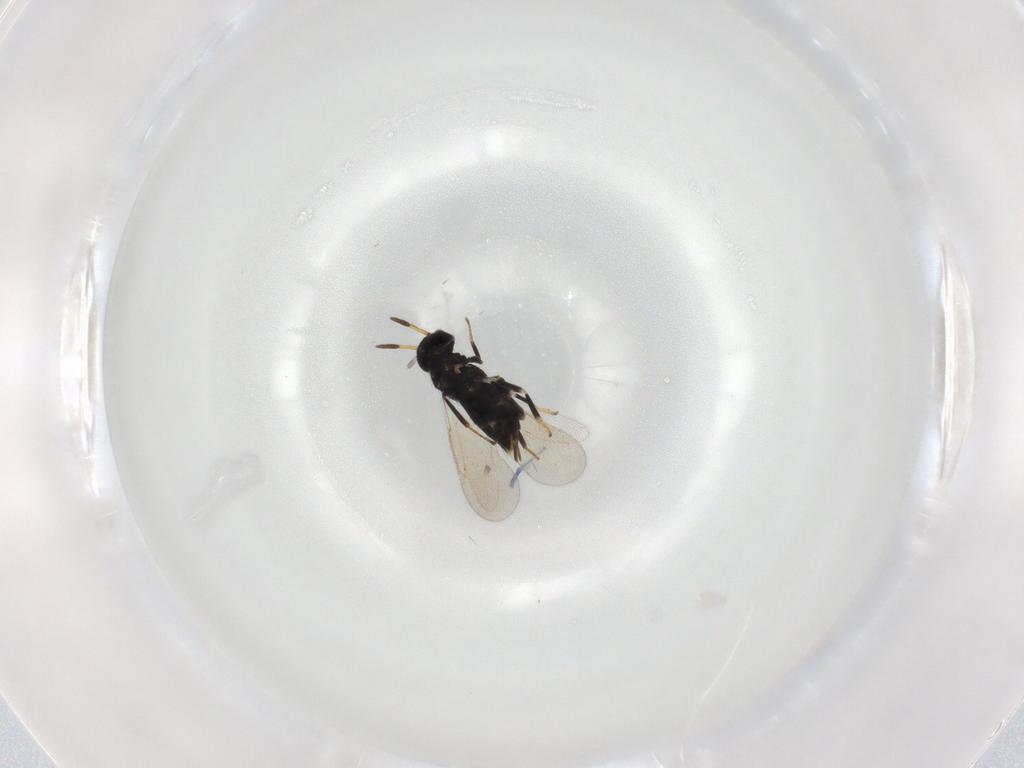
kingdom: Animalia
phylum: Arthropoda
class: Insecta
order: Hymenoptera
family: Aphelinidae
